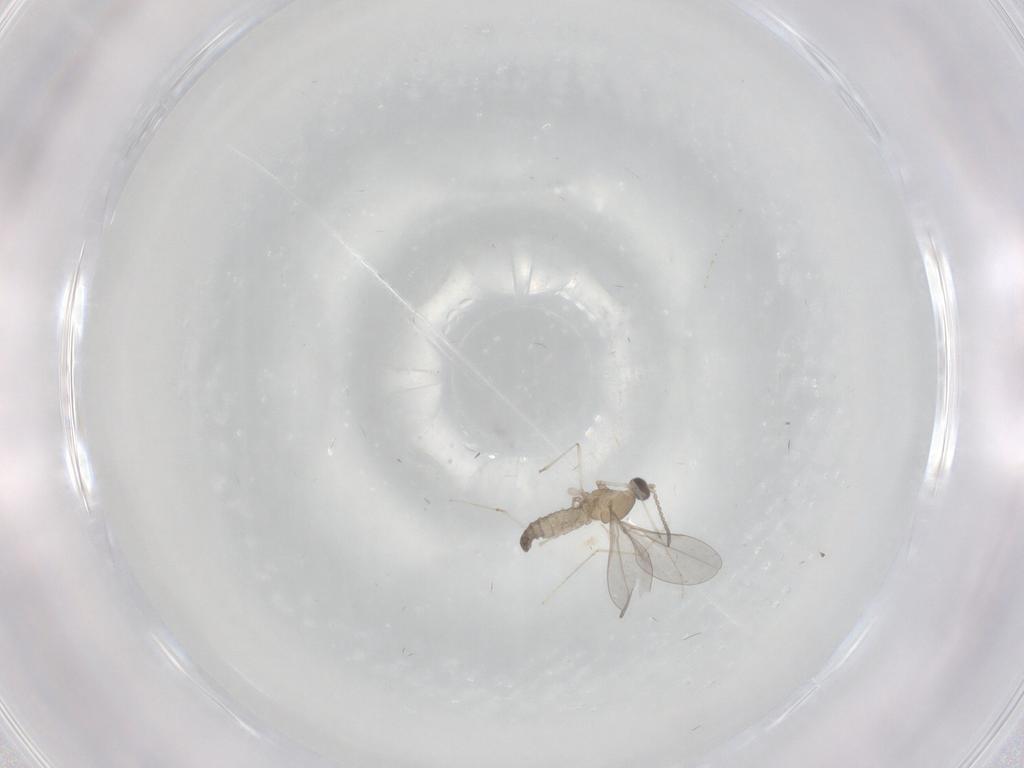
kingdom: Animalia
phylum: Arthropoda
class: Insecta
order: Diptera
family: Cecidomyiidae
